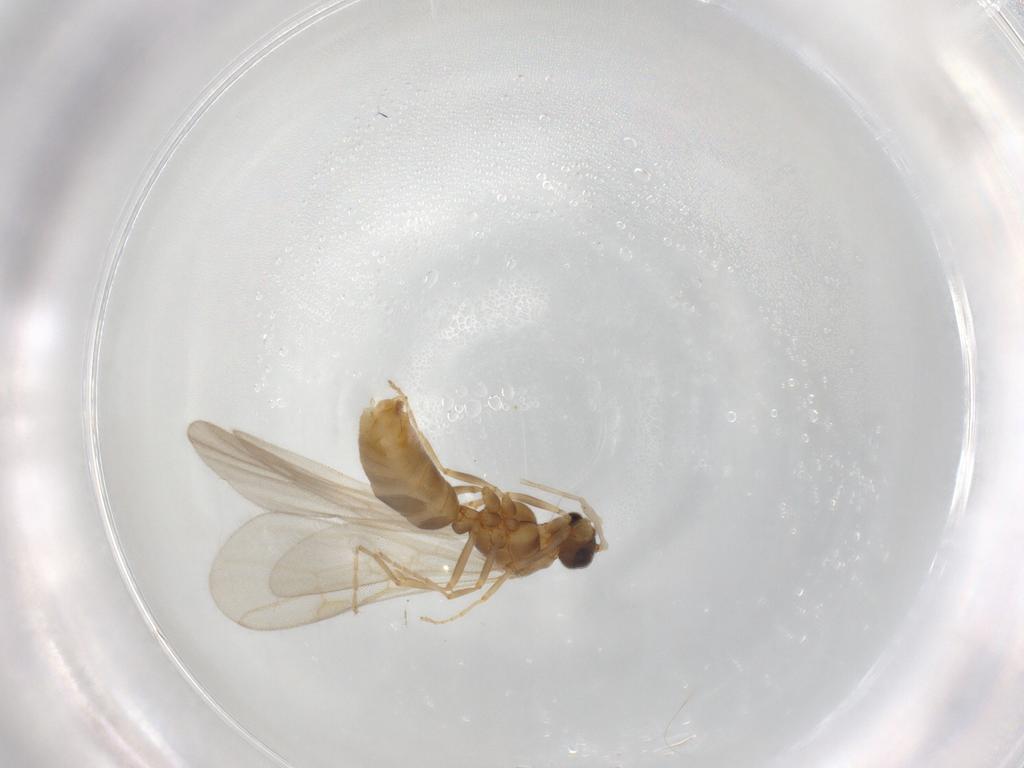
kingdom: Animalia
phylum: Arthropoda
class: Insecta
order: Hymenoptera
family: Formicidae
